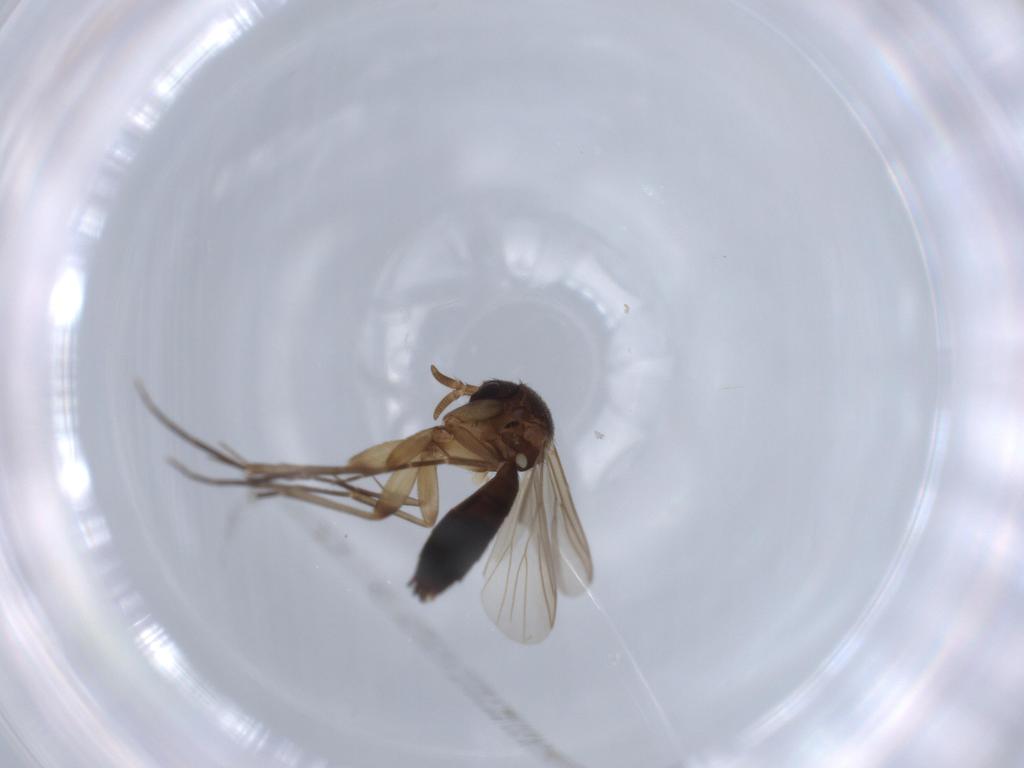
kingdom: Animalia
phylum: Arthropoda
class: Insecta
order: Diptera
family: Mycetophilidae
